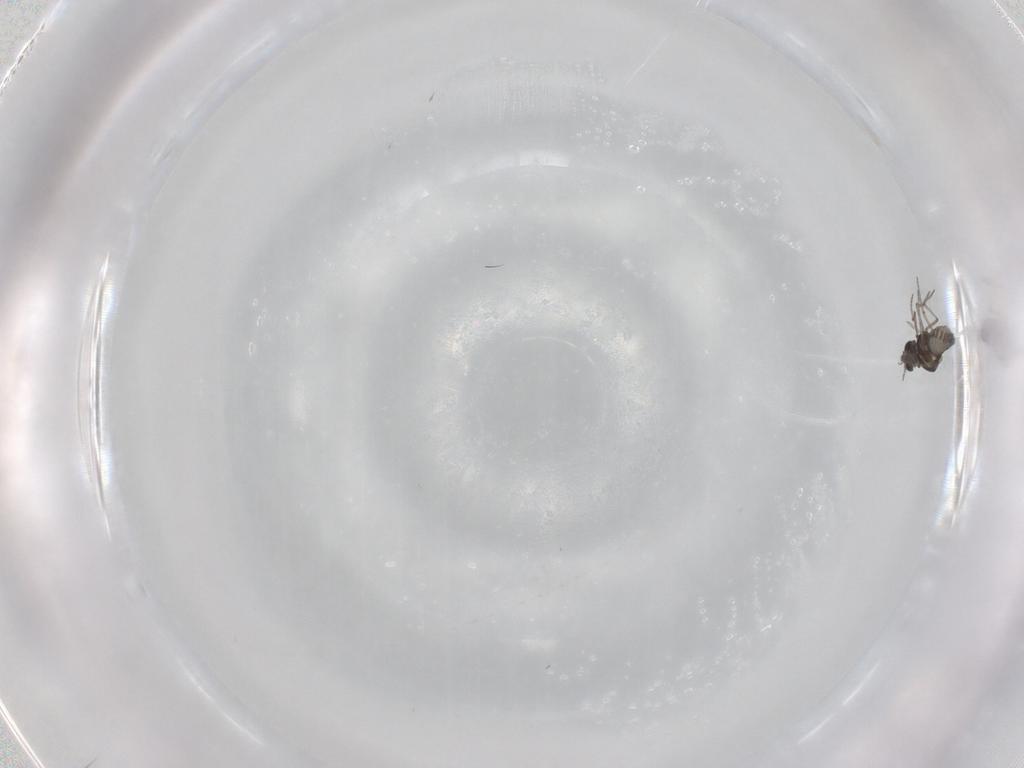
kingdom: Animalia
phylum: Arthropoda
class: Insecta
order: Diptera
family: Ceratopogonidae
